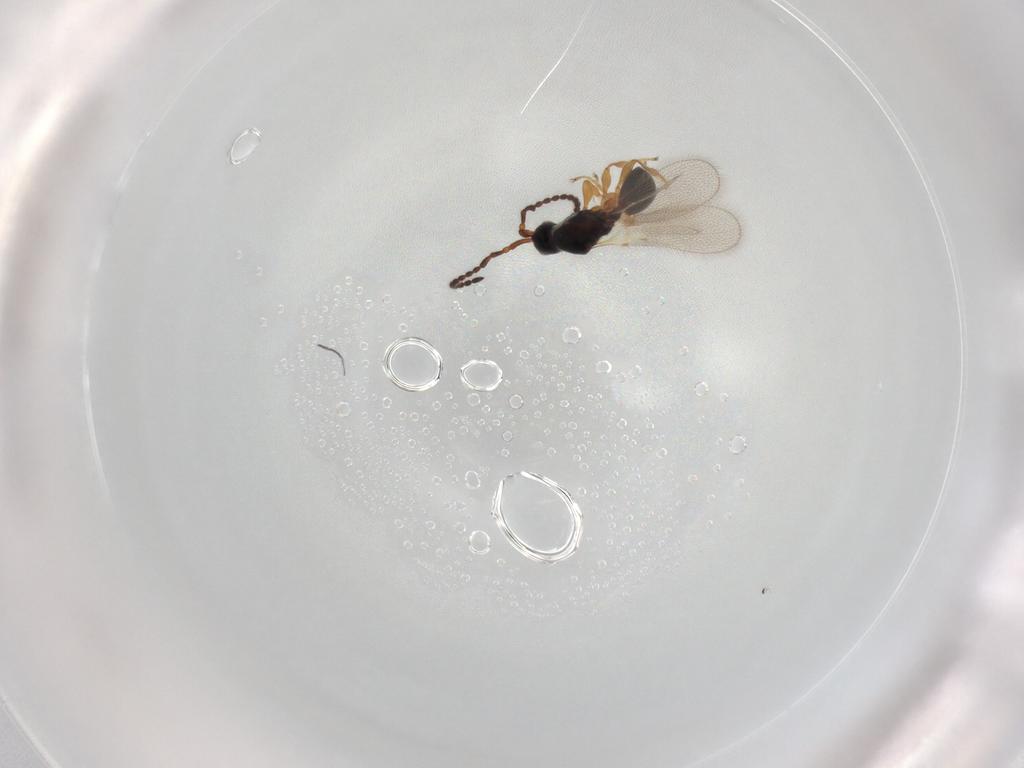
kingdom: Animalia
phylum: Arthropoda
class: Insecta
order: Hymenoptera
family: Diapriidae
